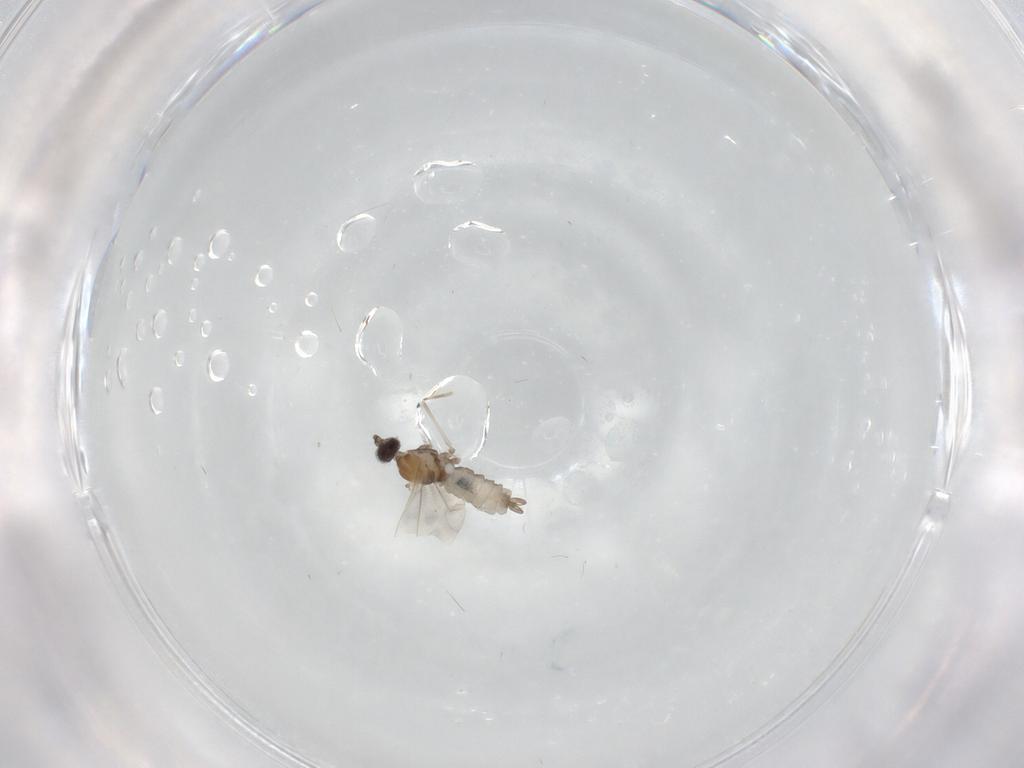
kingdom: Animalia
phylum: Arthropoda
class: Insecta
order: Diptera
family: Cecidomyiidae
